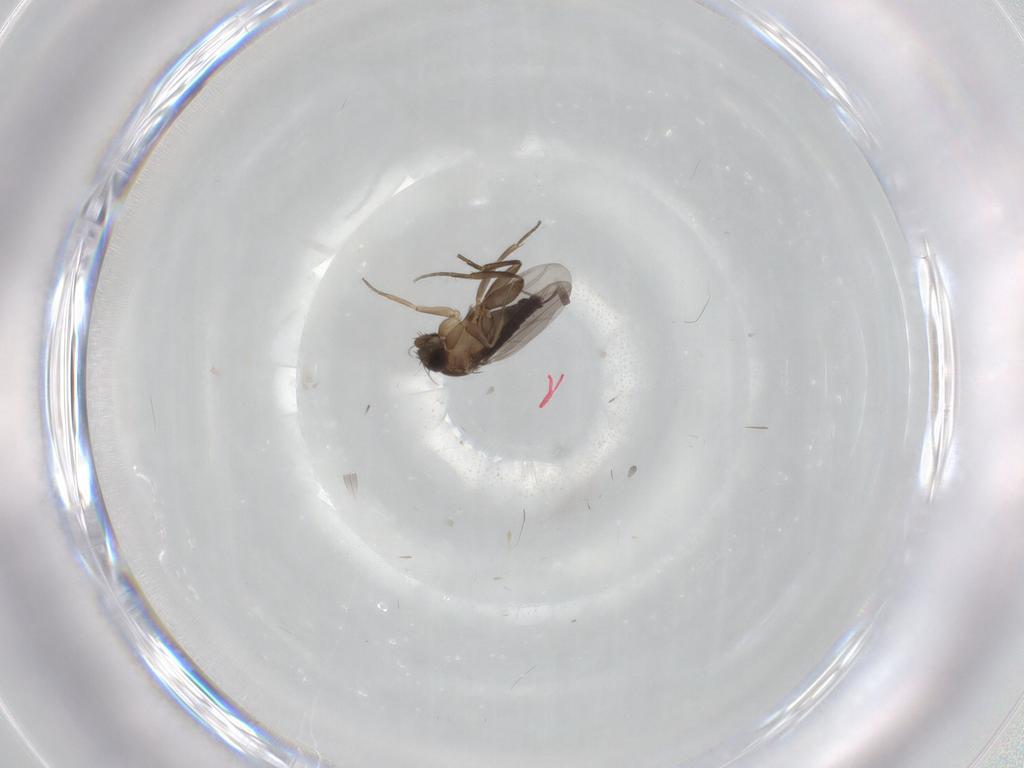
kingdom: Animalia
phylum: Arthropoda
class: Insecta
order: Diptera
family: Phoridae
